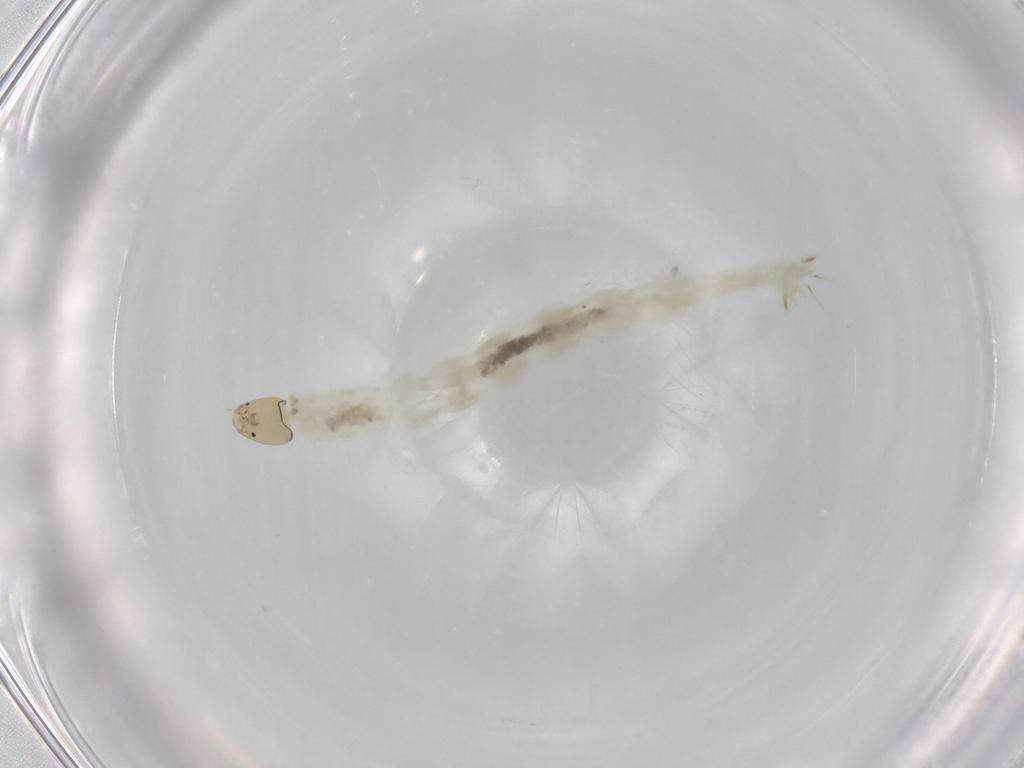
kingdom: Animalia
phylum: Arthropoda
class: Insecta
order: Diptera
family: Chironomidae
